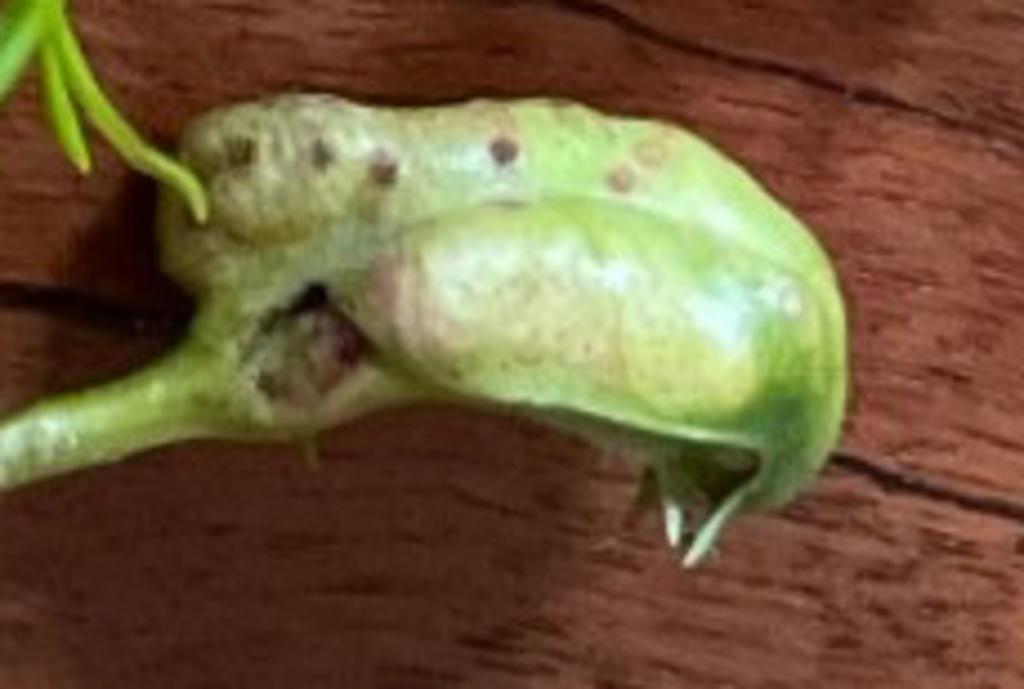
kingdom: Animalia
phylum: Arthropoda
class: Insecta
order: Hemiptera
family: Aphalaridae
